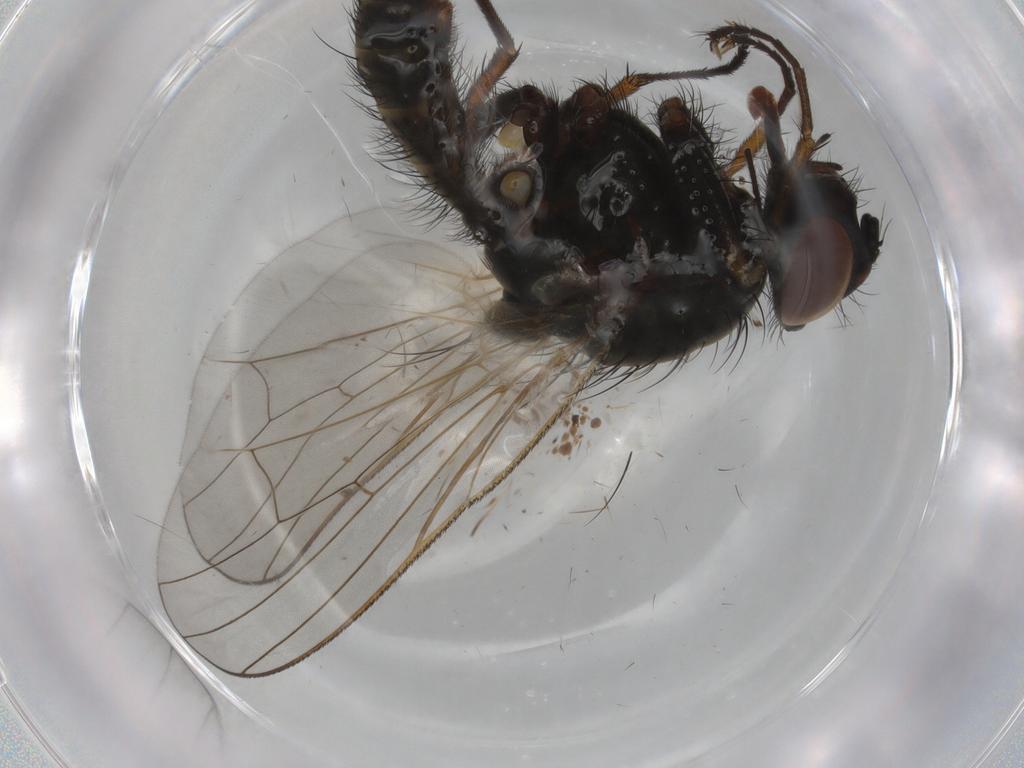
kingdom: Animalia
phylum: Arthropoda
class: Insecta
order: Diptera
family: Anthomyiidae
